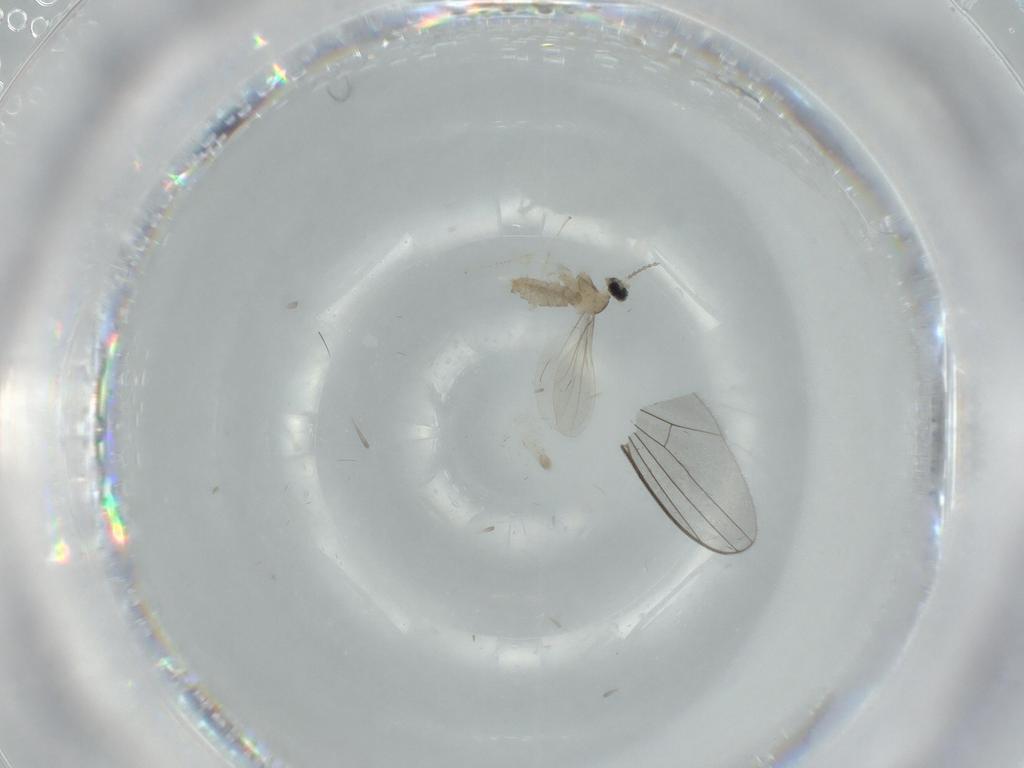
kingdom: Animalia
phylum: Arthropoda
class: Insecta
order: Diptera
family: Cecidomyiidae
